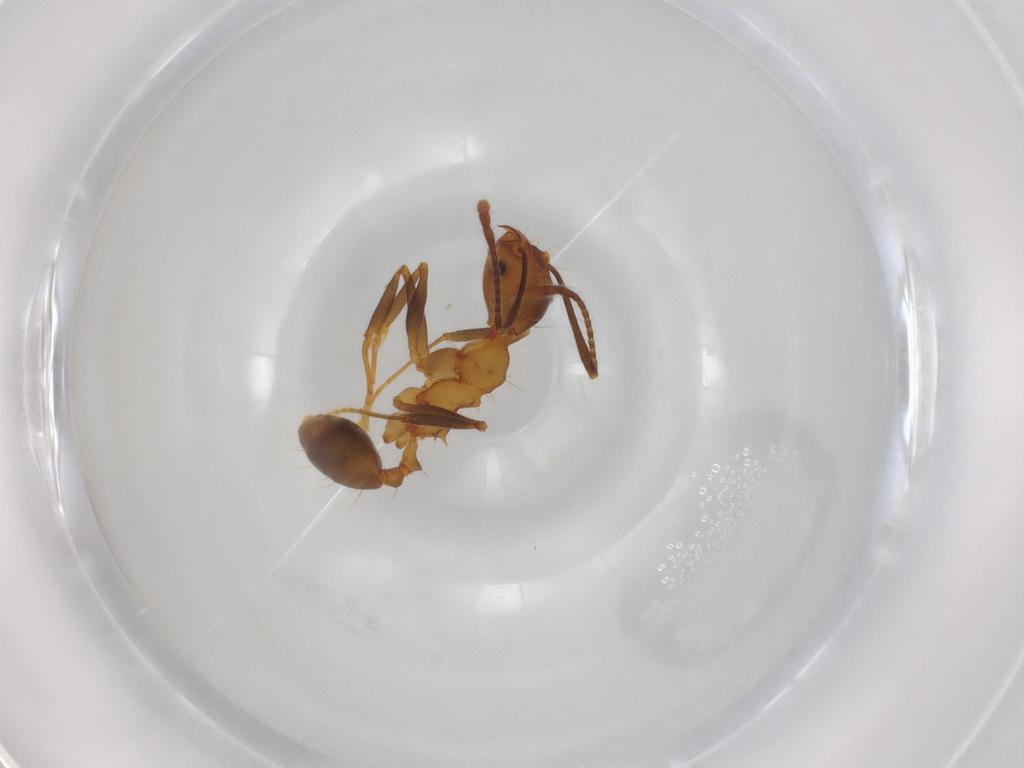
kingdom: Animalia
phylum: Arthropoda
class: Insecta
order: Hymenoptera
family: Formicidae
